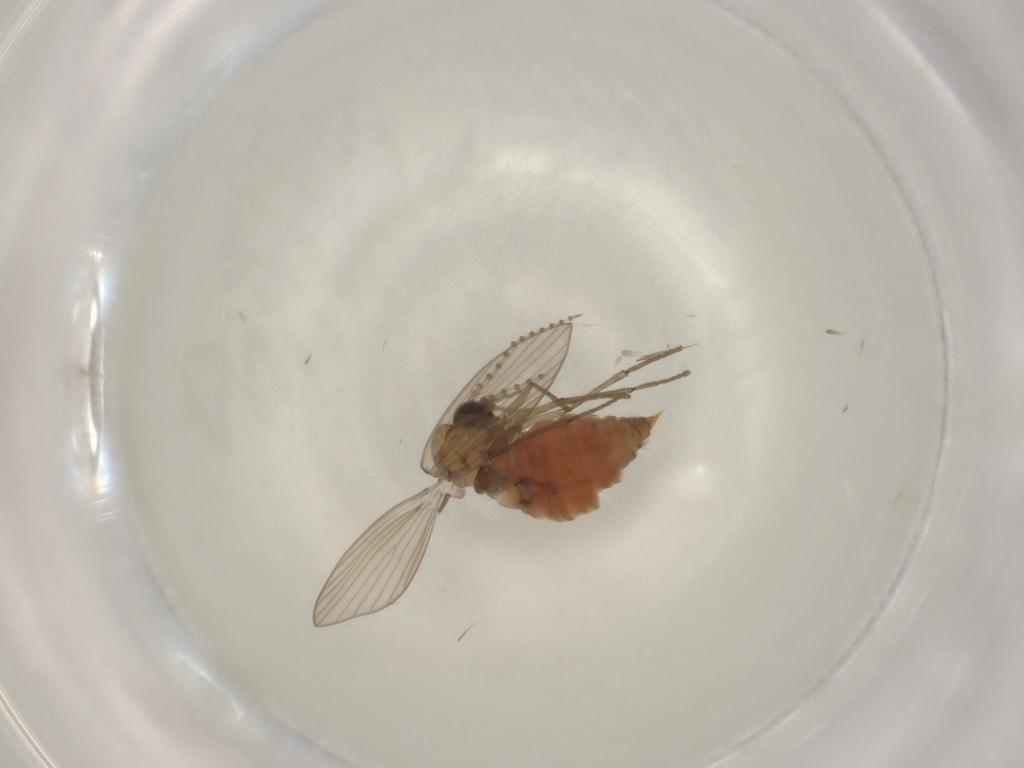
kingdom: Animalia
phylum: Arthropoda
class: Insecta
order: Diptera
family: Psychodidae
